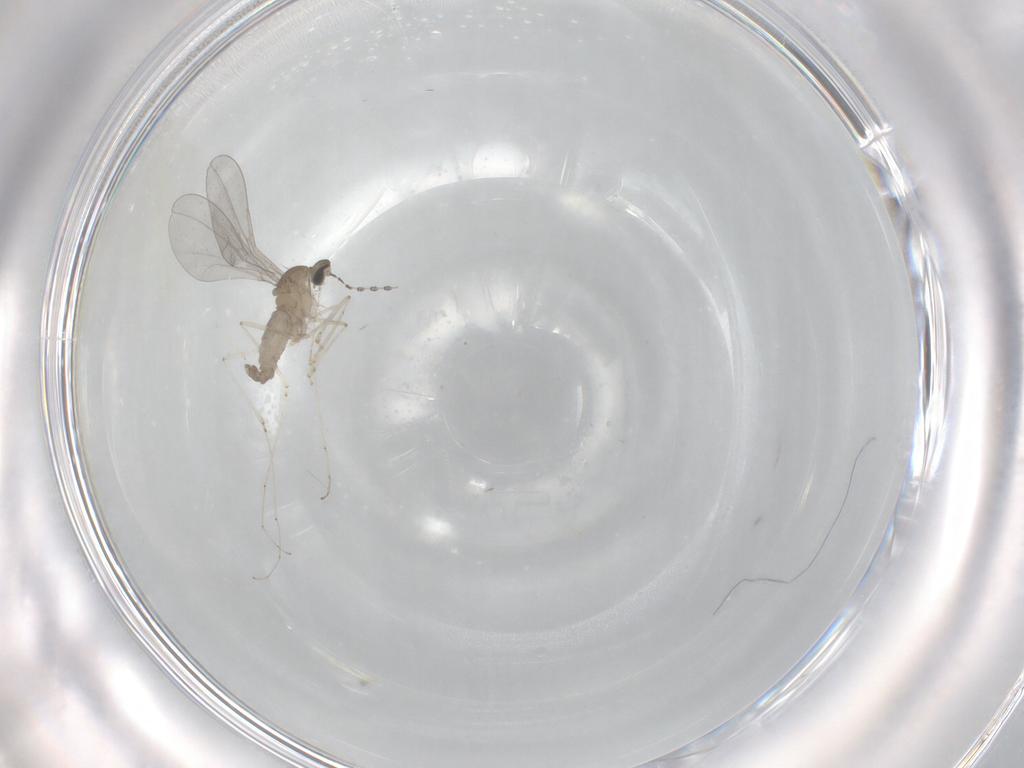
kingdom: Animalia
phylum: Arthropoda
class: Insecta
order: Diptera
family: Cecidomyiidae
